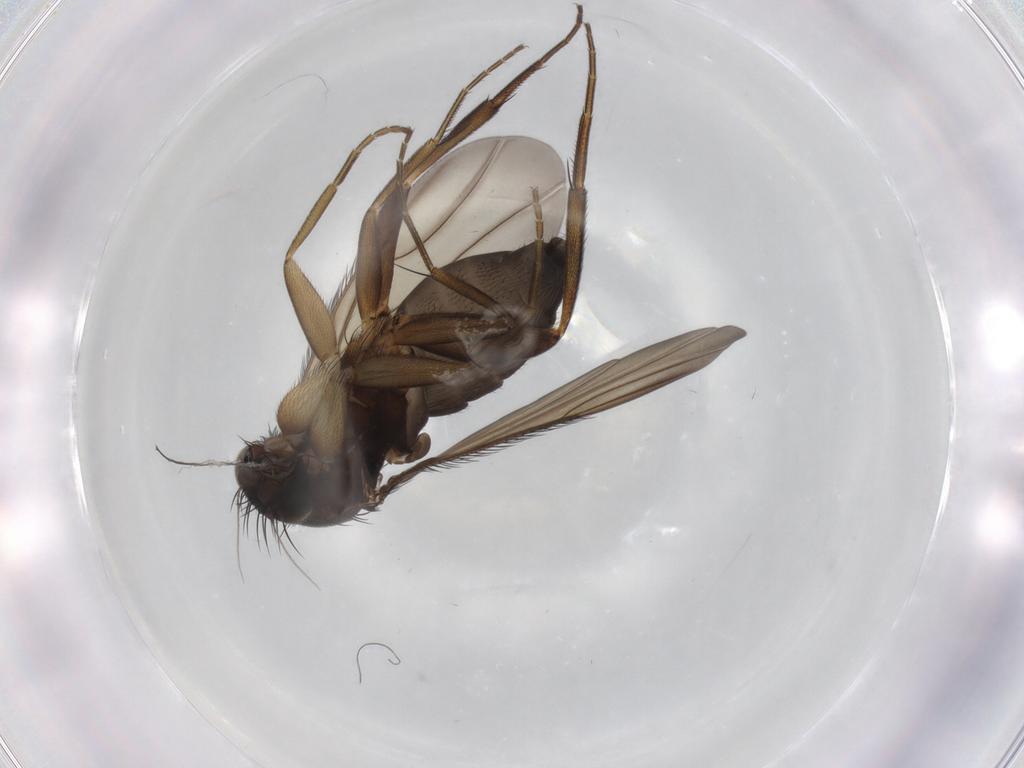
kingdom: Animalia
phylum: Arthropoda
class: Insecta
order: Diptera
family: Phoridae
